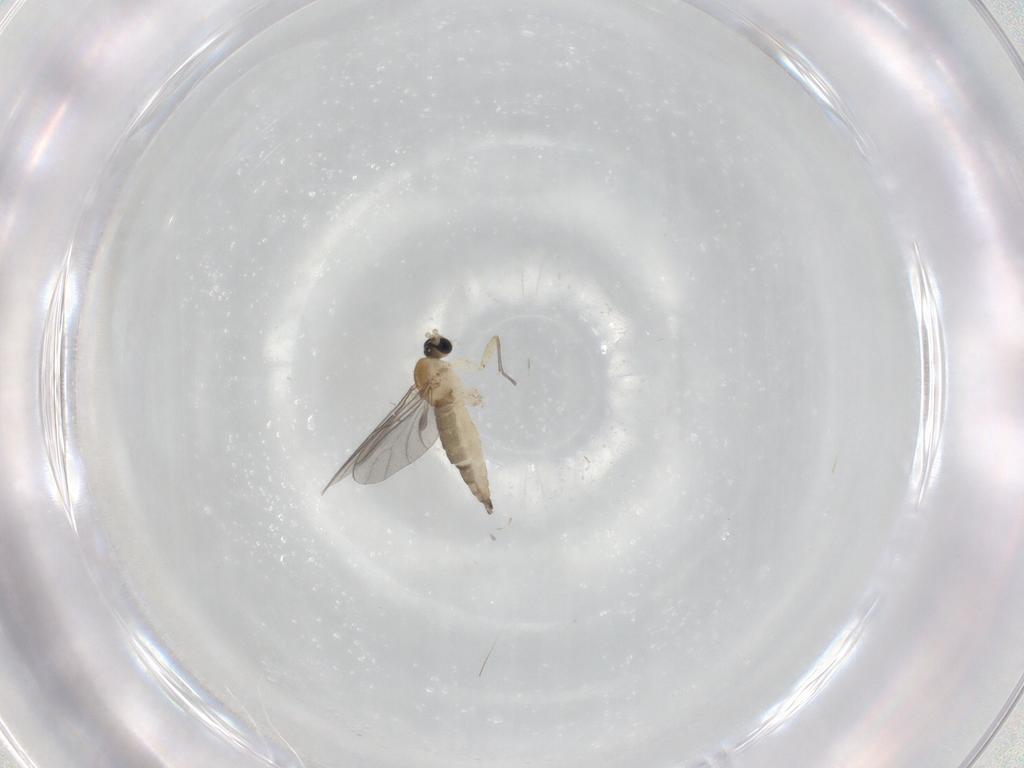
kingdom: Animalia
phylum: Arthropoda
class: Insecta
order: Diptera
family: Sciaridae
